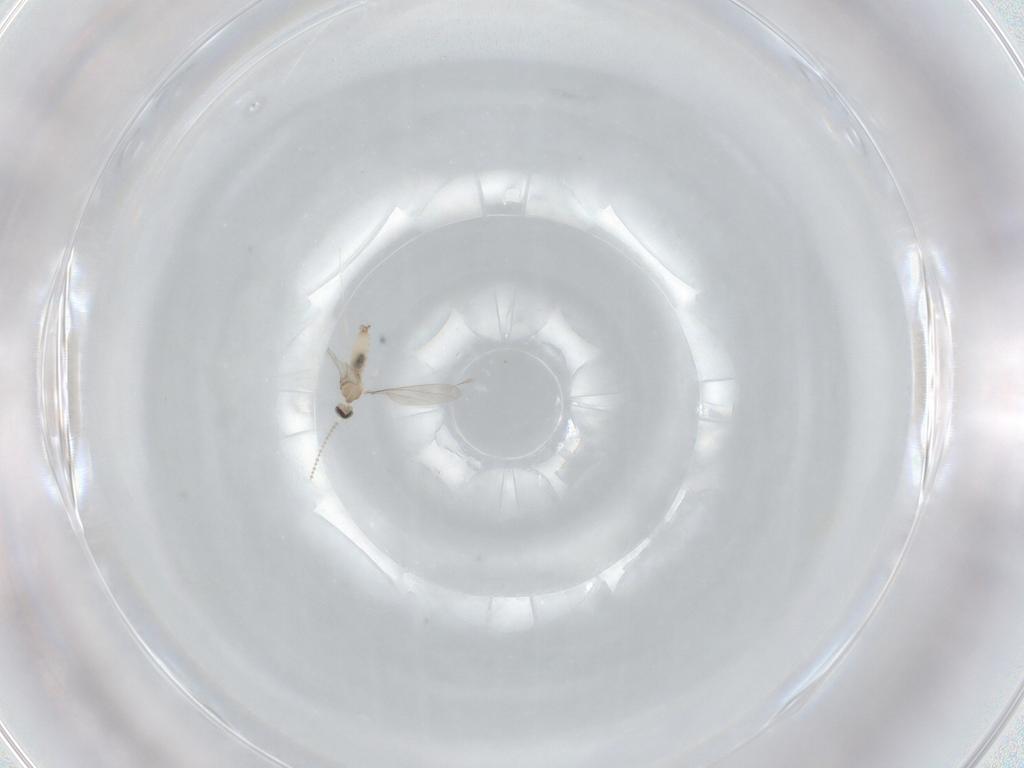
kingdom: Animalia
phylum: Arthropoda
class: Insecta
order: Diptera
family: Cecidomyiidae
